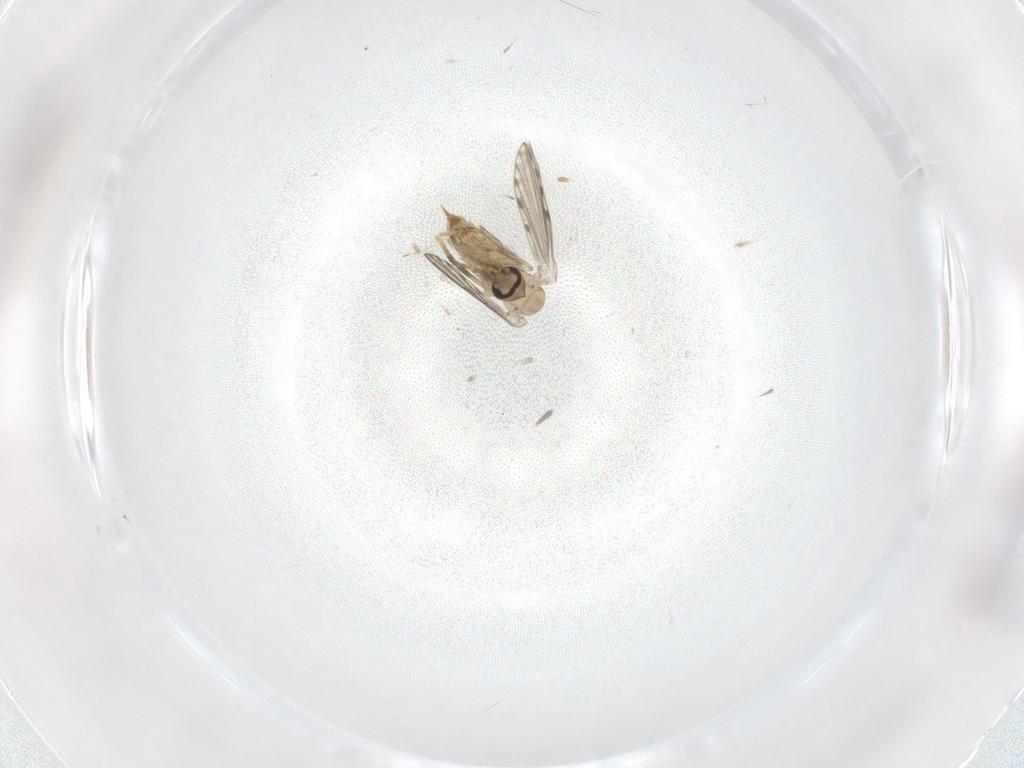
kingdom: Animalia
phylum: Arthropoda
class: Insecta
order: Diptera
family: Psychodidae
